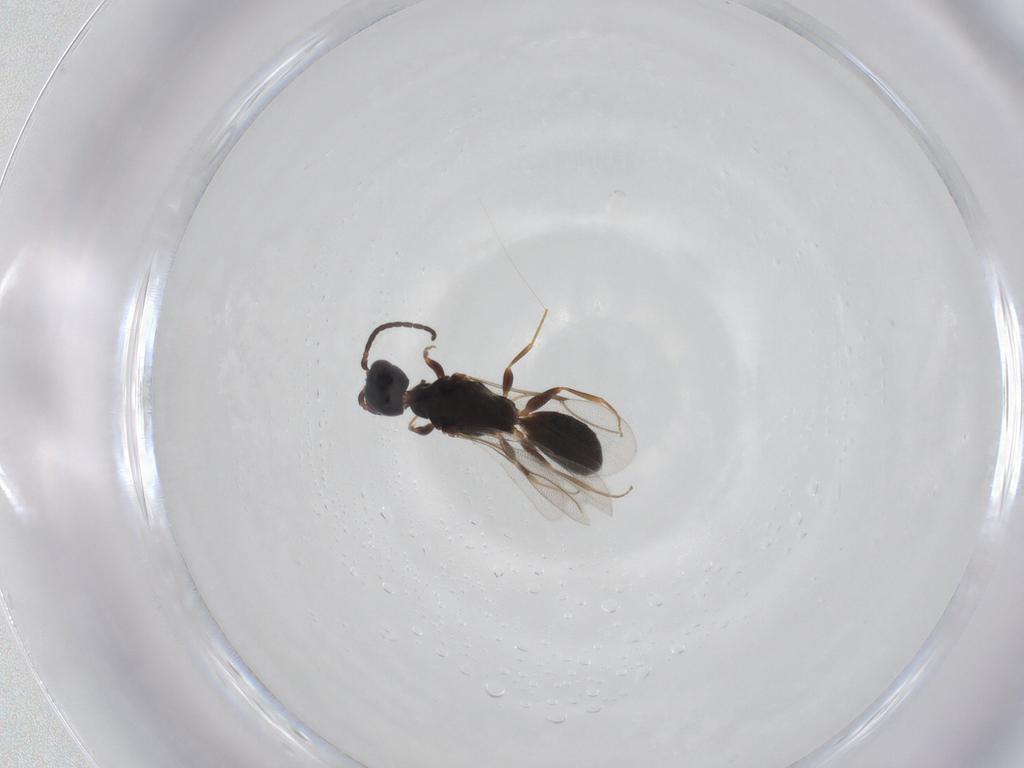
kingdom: Animalia
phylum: Arthropoda
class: Insecta
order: Hymenoptera
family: Bethylidae
